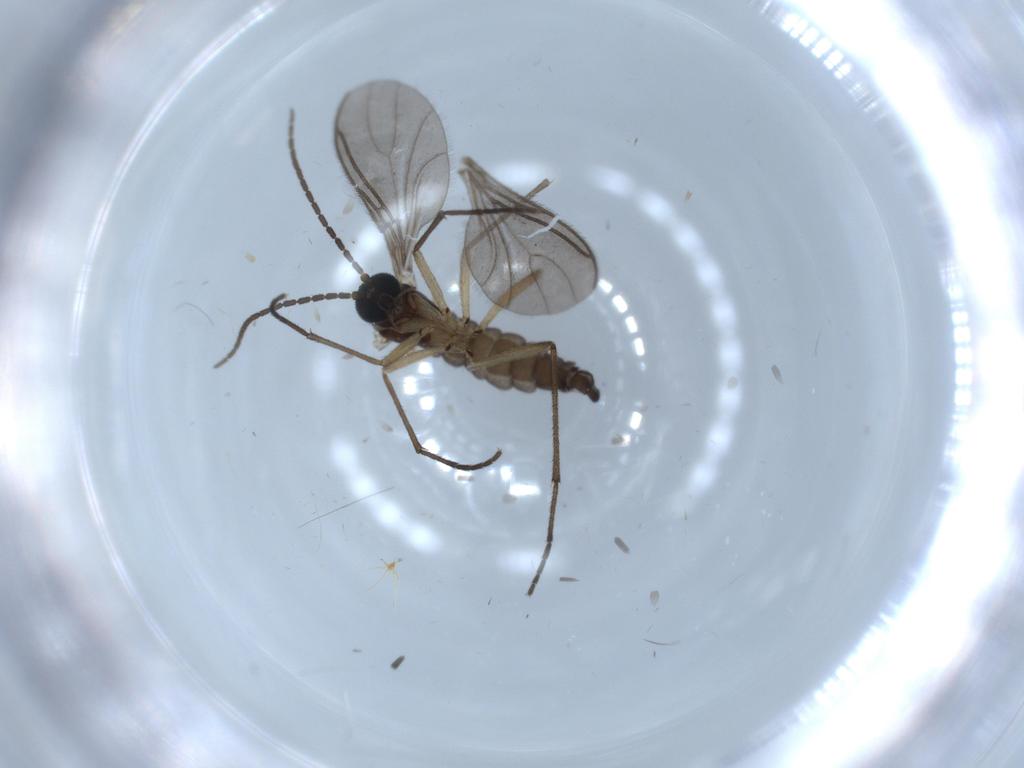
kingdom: Animalia
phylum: Arthropoda
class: Insecta
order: Diptera
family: Sciaridae
